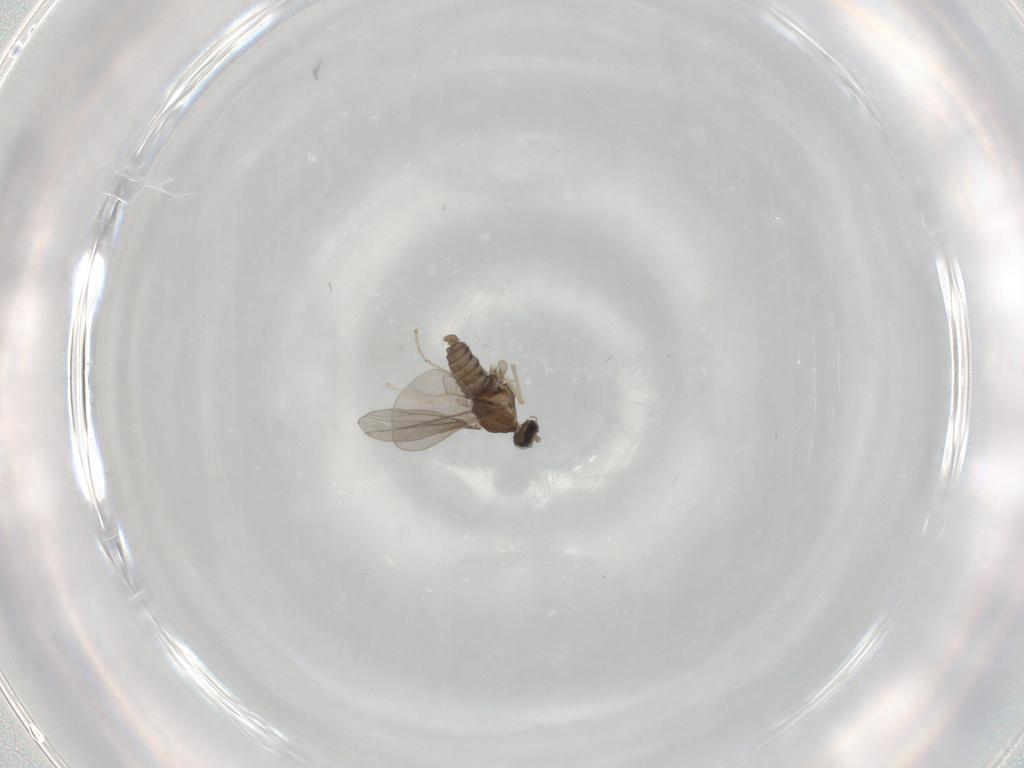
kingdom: Animalia
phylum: Arthropoda
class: Insecta
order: Diptera
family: Cecidomyiidae
